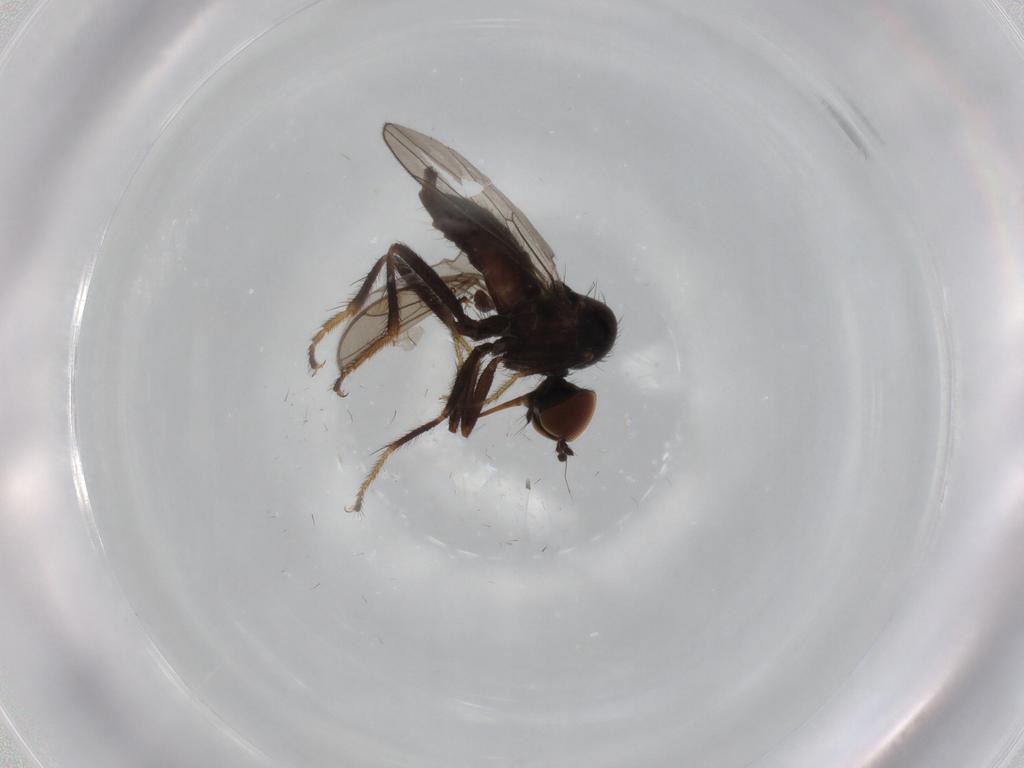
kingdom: Animalia
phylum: Arthropoda
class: Insecta
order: Diptera
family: Hybotidae
